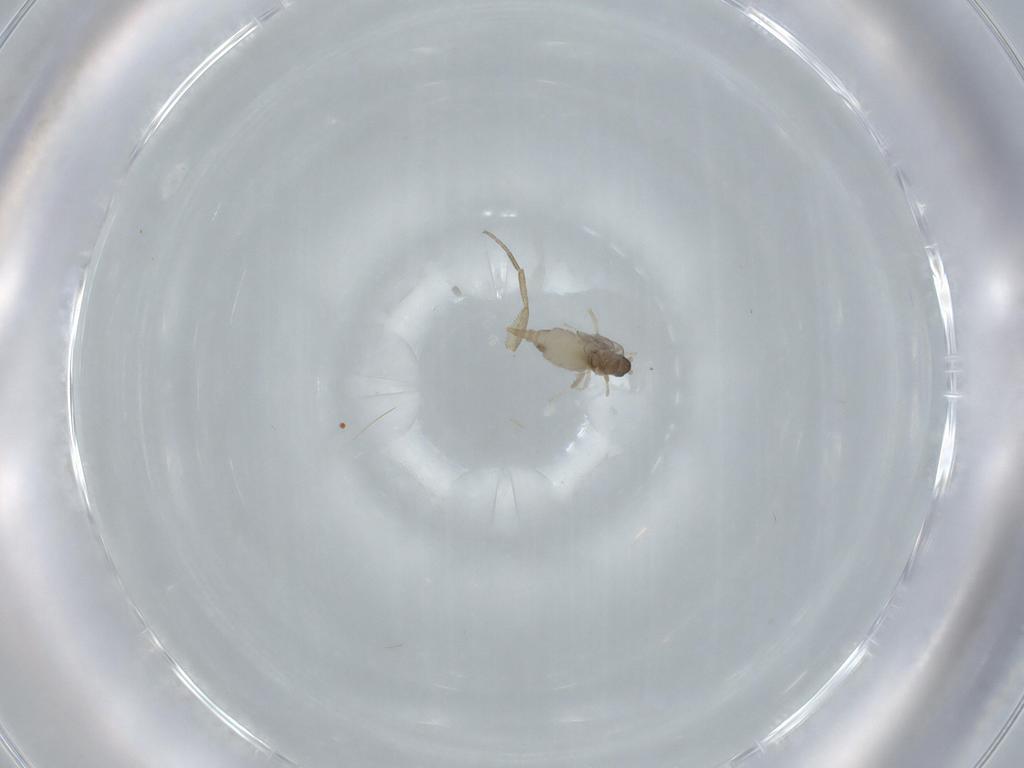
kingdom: Animalia
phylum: Arthropoda
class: Insecta
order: Diptera
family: Cecidomyiidae
